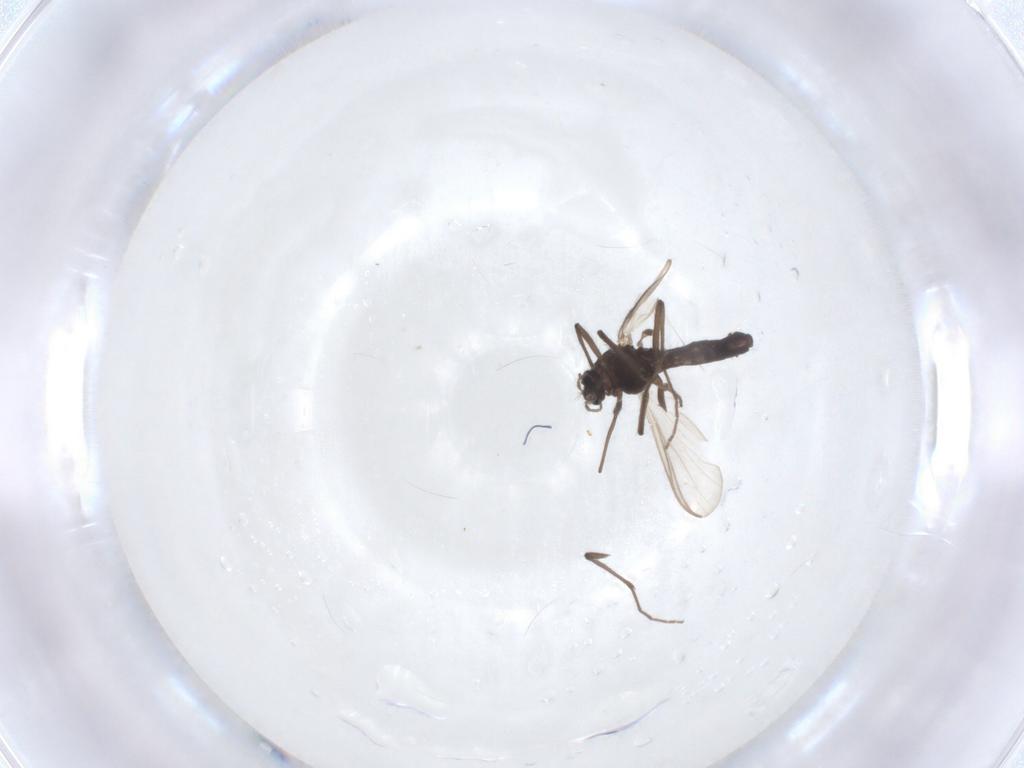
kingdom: Animalia
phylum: Arthropoda
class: Insecta
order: Diptera
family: Chironomidae
